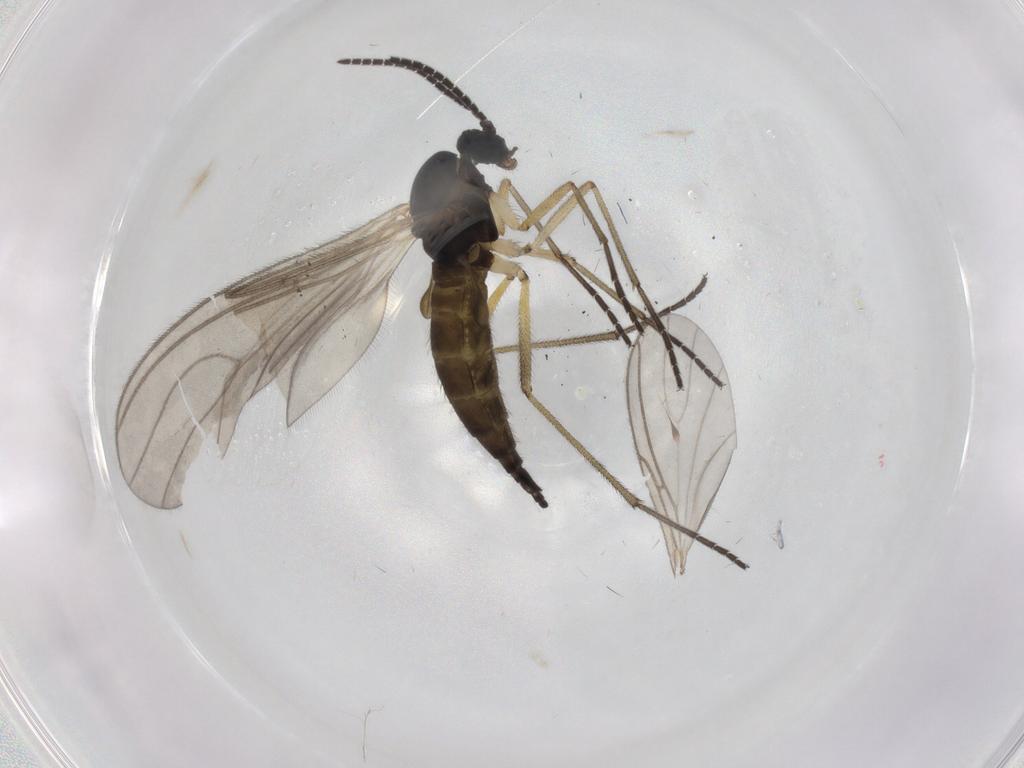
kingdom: Animalia
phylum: Arthropoda
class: Insecta
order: Diptera
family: Sciaridae
